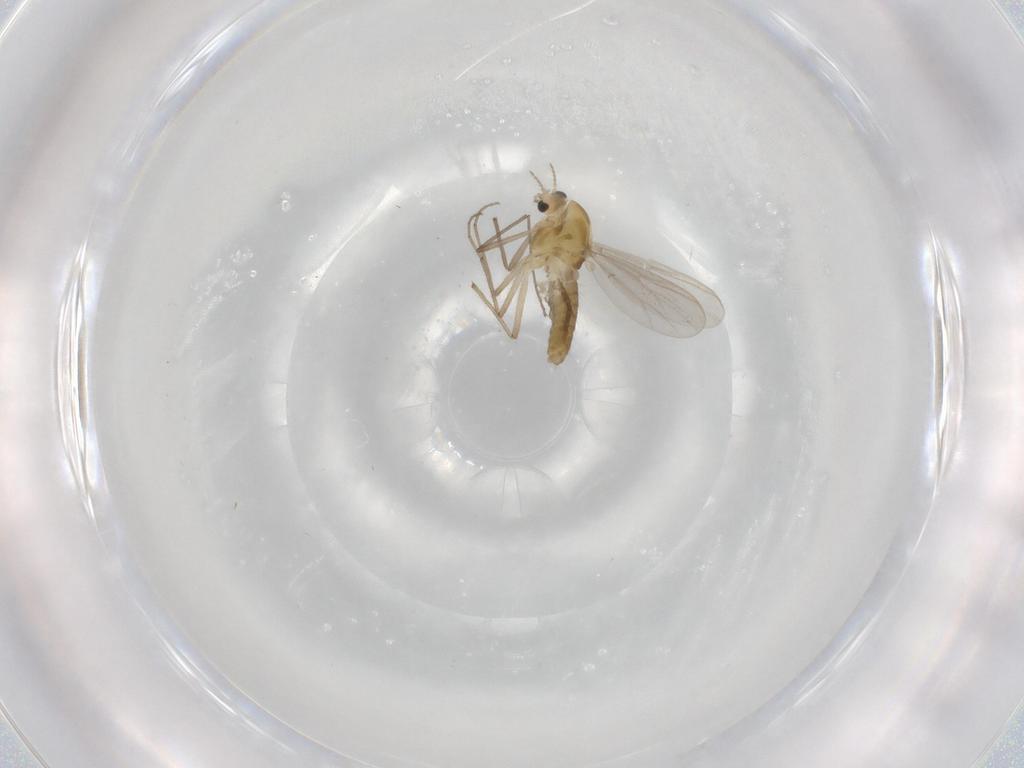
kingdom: Animalia
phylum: Arthropoda
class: Insecta
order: Diptera
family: Chironomidae
